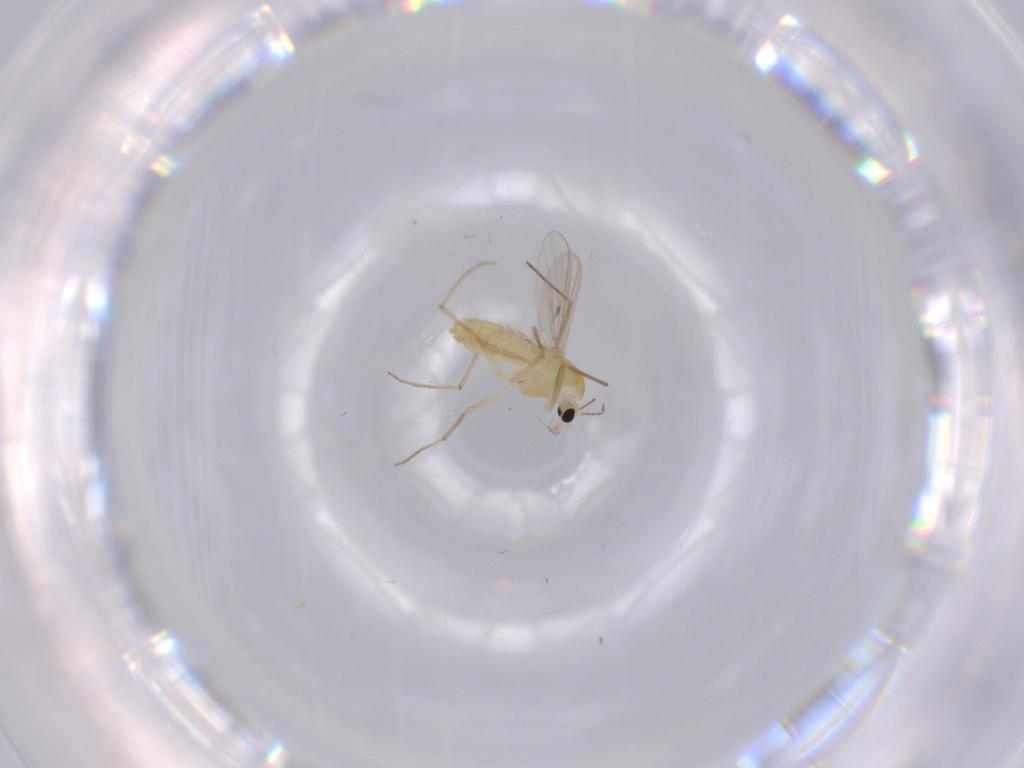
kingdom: Animalia
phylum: Arthropoda
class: Insecta
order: Diptera
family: Chironomidae
